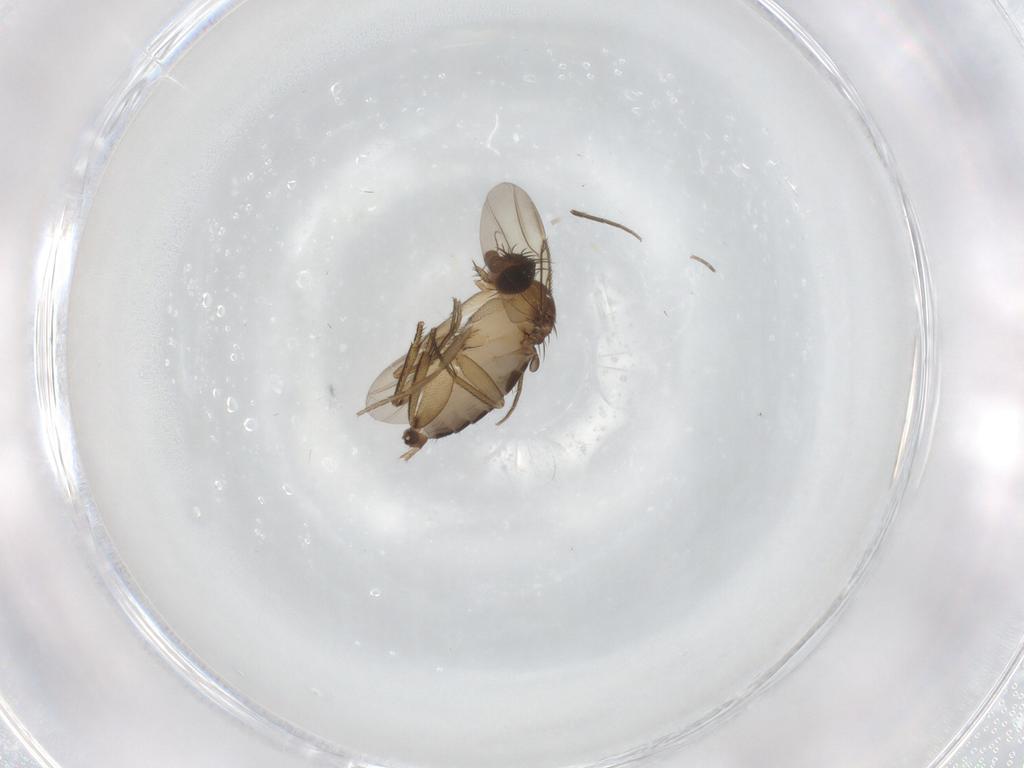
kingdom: Animalia
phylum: Arthropoda
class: Insecta
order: Diptera
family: Phoridae
